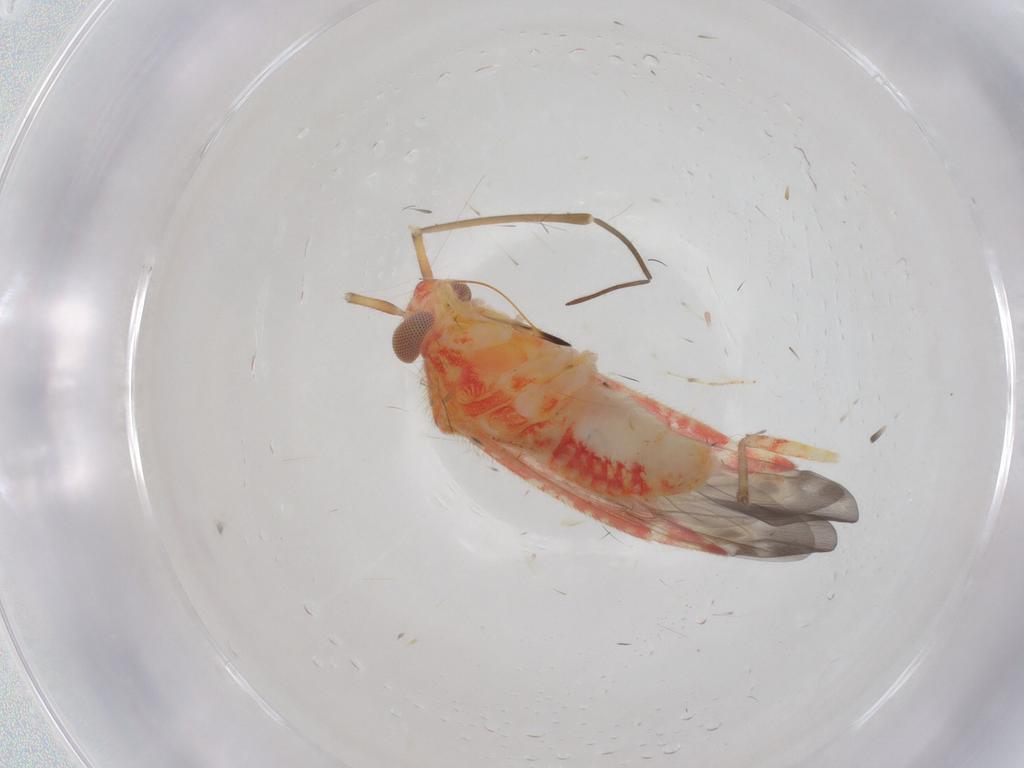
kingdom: Animalia
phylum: Arthropoda
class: Insecta
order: Hemiptera
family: Miridae
